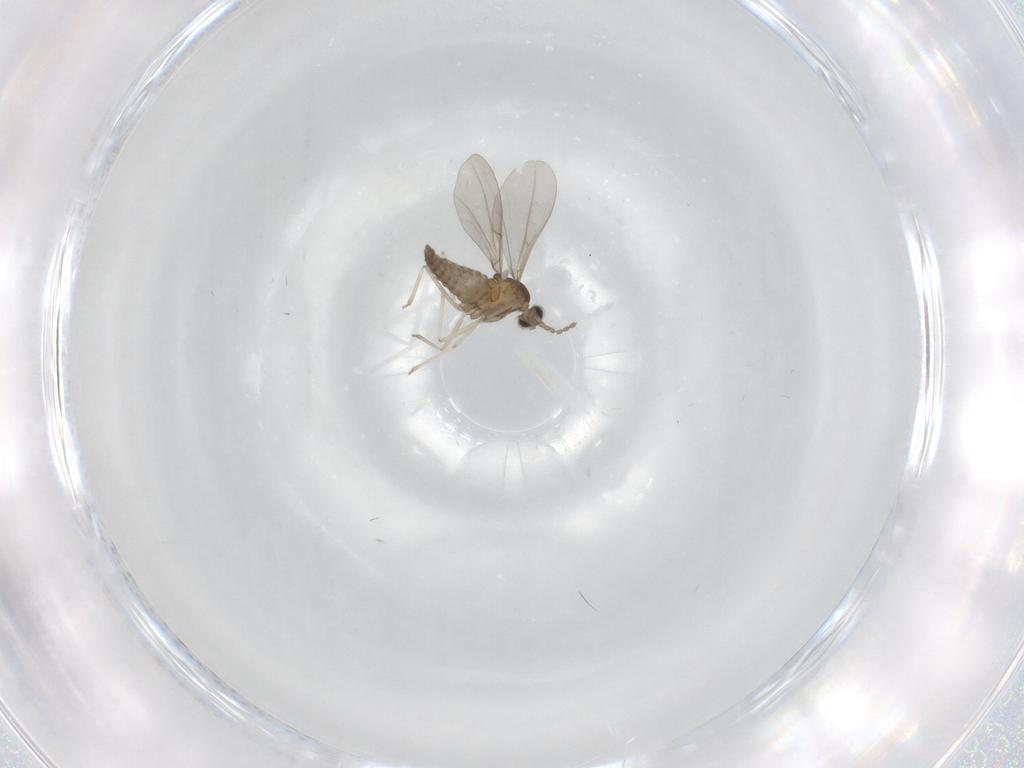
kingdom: Animalia
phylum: Arthropoda
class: Insecta
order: Diptera
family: Cecidomyiidae
